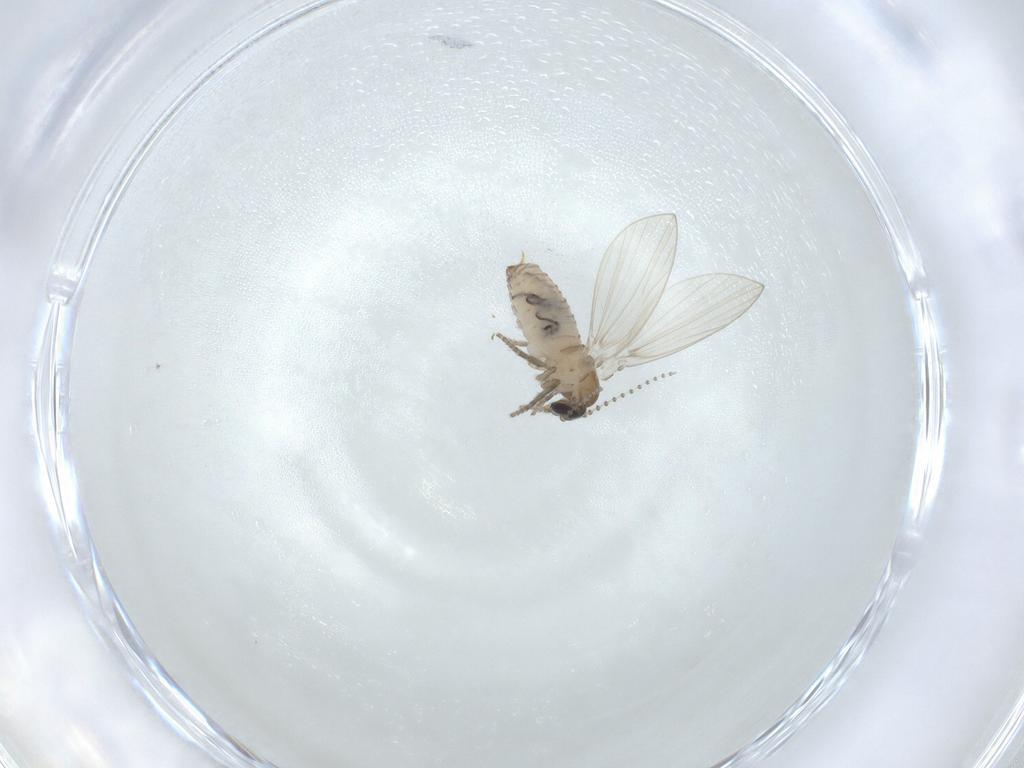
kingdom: Animalia
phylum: Arthropoda
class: Insecta
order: Diptera
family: Psychodidae
